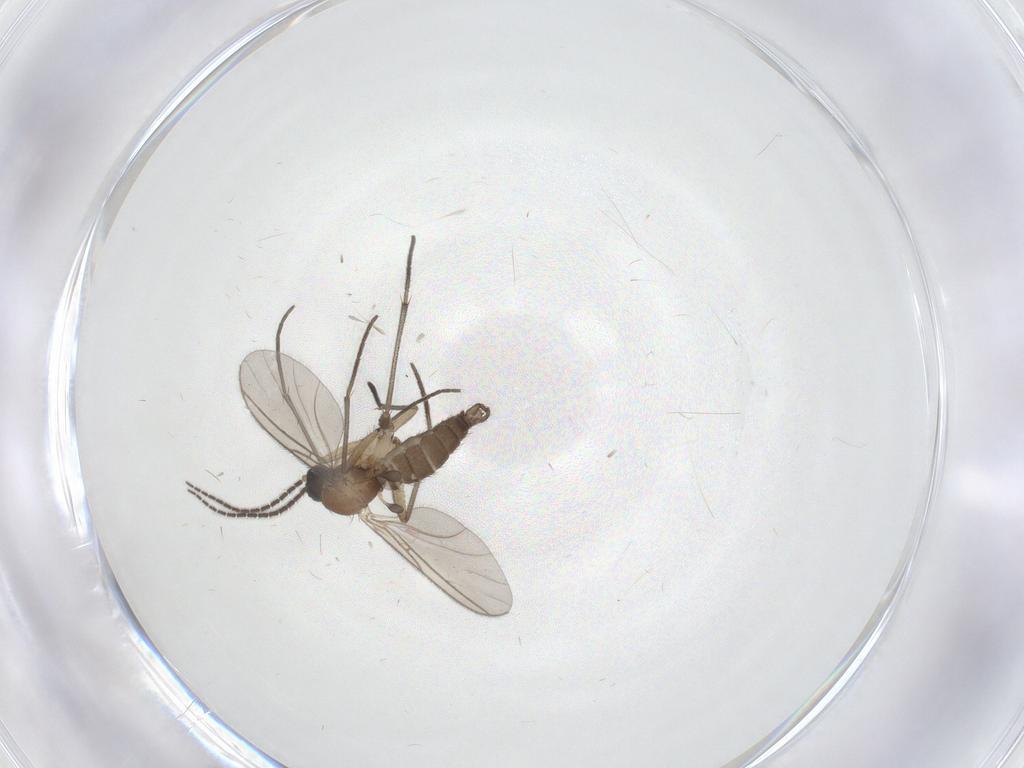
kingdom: Animalia
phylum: Arthropoda
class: Insecta
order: Diptera
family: Sciaridae
